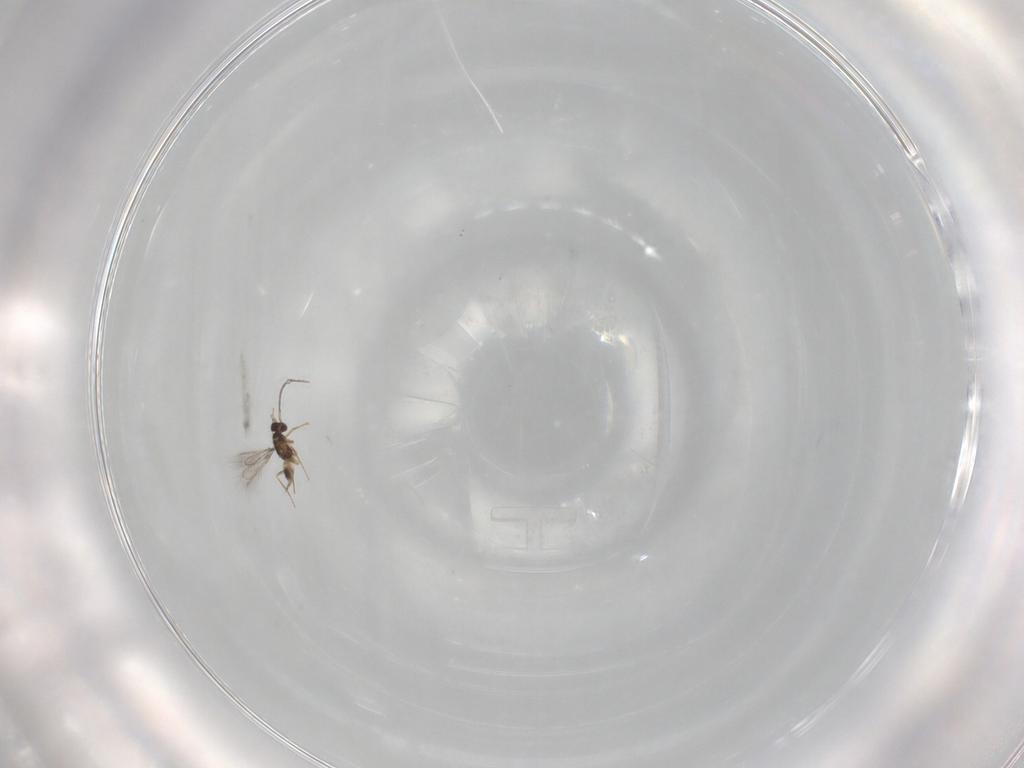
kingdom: Animalia
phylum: Arthropoda
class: Insecta
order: Hymenoptera
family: Mymaridae
